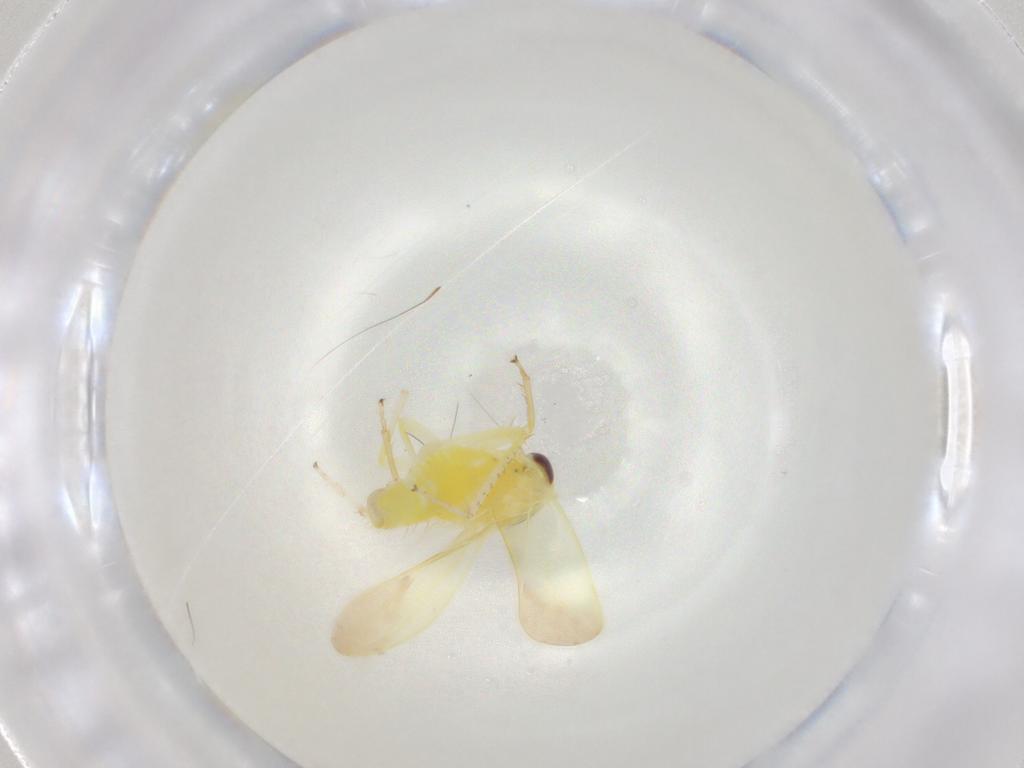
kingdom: Animalia
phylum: Arthropoda
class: Insecta
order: Hemiptera
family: Cicadellidae
